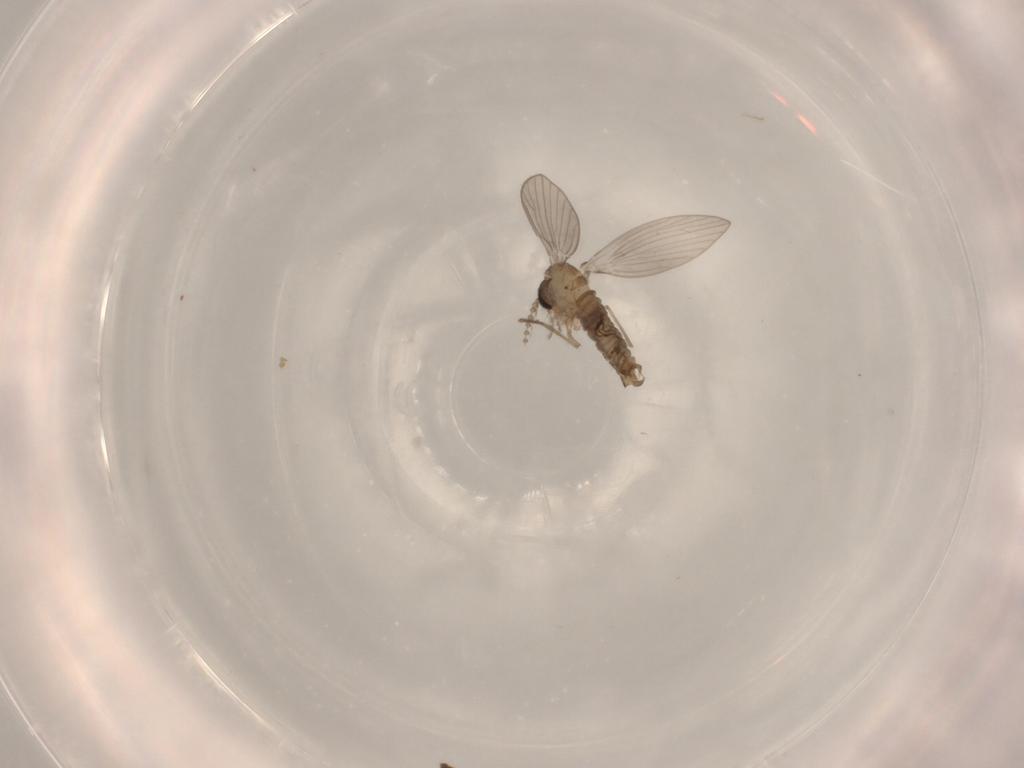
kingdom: Animalia
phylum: Arthropoda
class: Insecta
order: Diptera
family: Psychodidae
